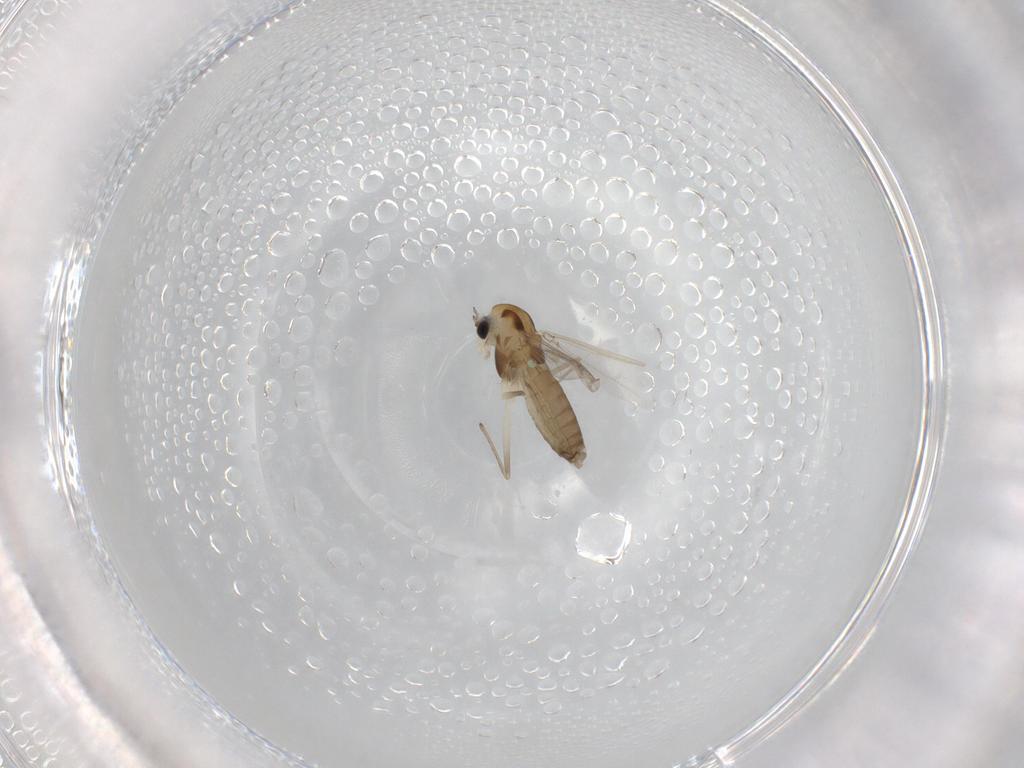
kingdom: Animalia
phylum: Arthropoda
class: Insecta
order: Diptera
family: Chironomidae
